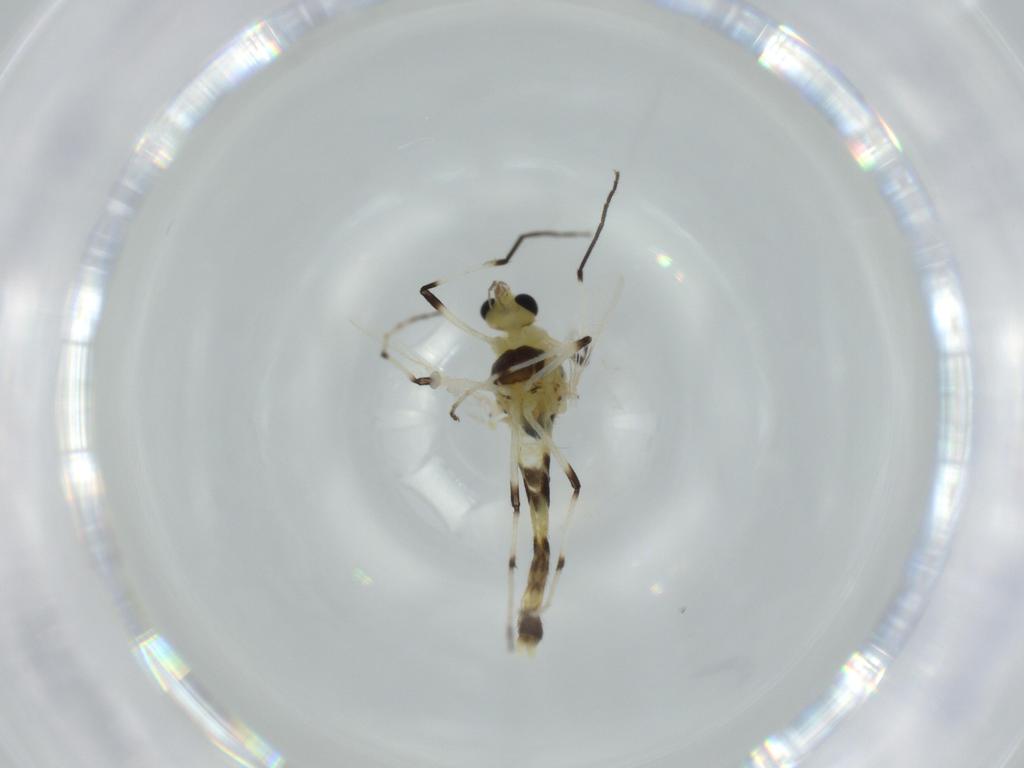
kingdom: Animalia
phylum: Arthropoda
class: Insecta
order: Diptera
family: Chironomidae
